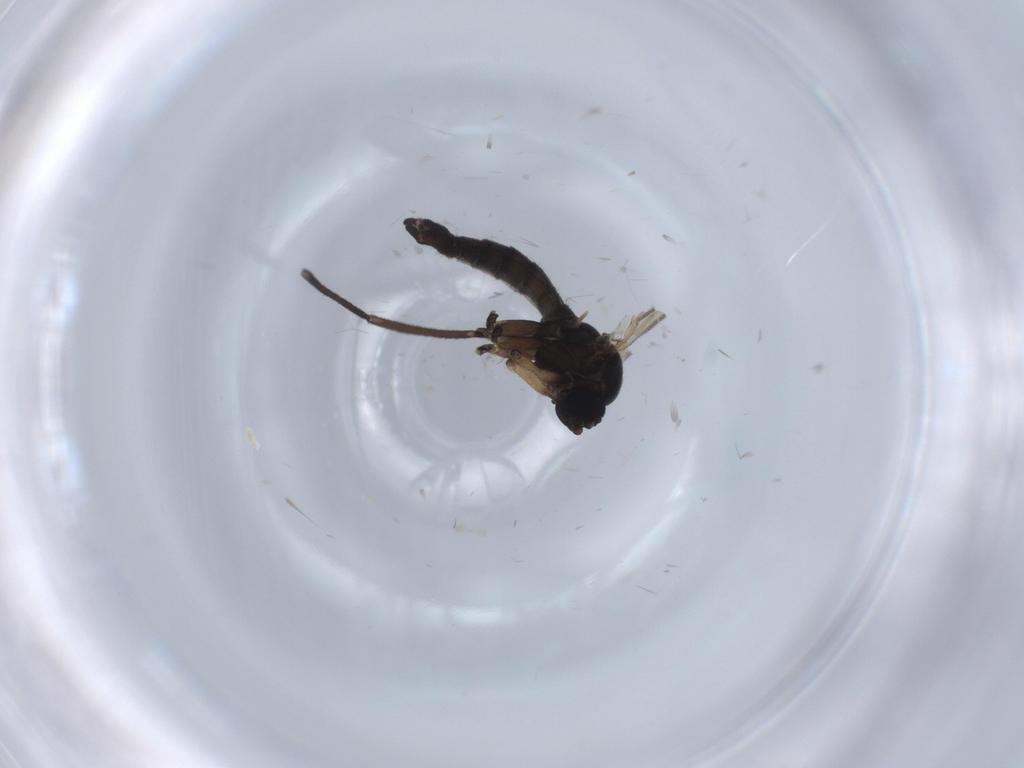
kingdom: Animalia
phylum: Arthropoda
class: Insecta
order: Diptera
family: Sciaridae
